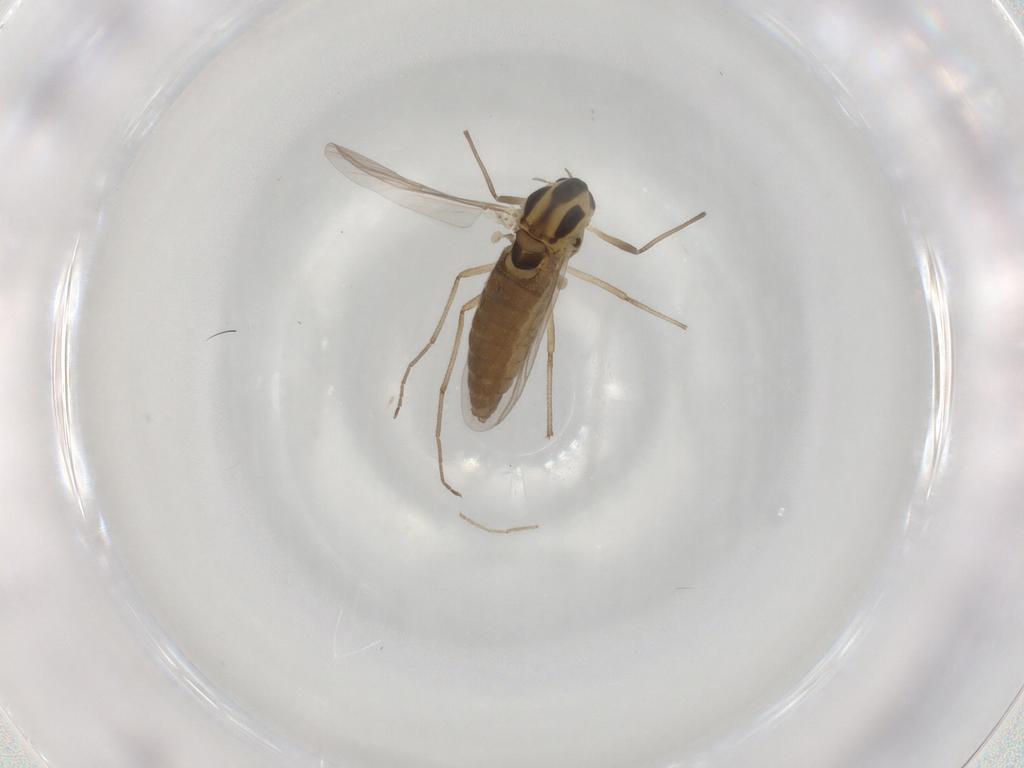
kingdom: Animalia
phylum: Arthropoda
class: Insecta
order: Diptera
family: Chironomidae
